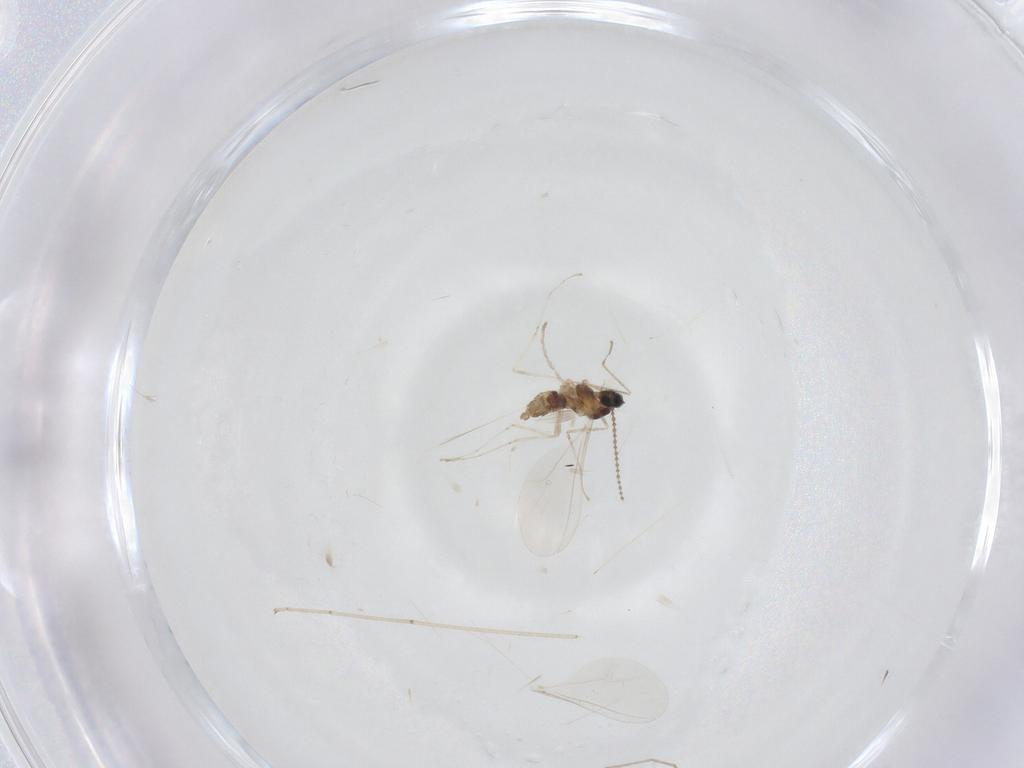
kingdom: Animalia
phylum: Arthropoda
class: Insecta
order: Diptera
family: Cecidomyiidae
